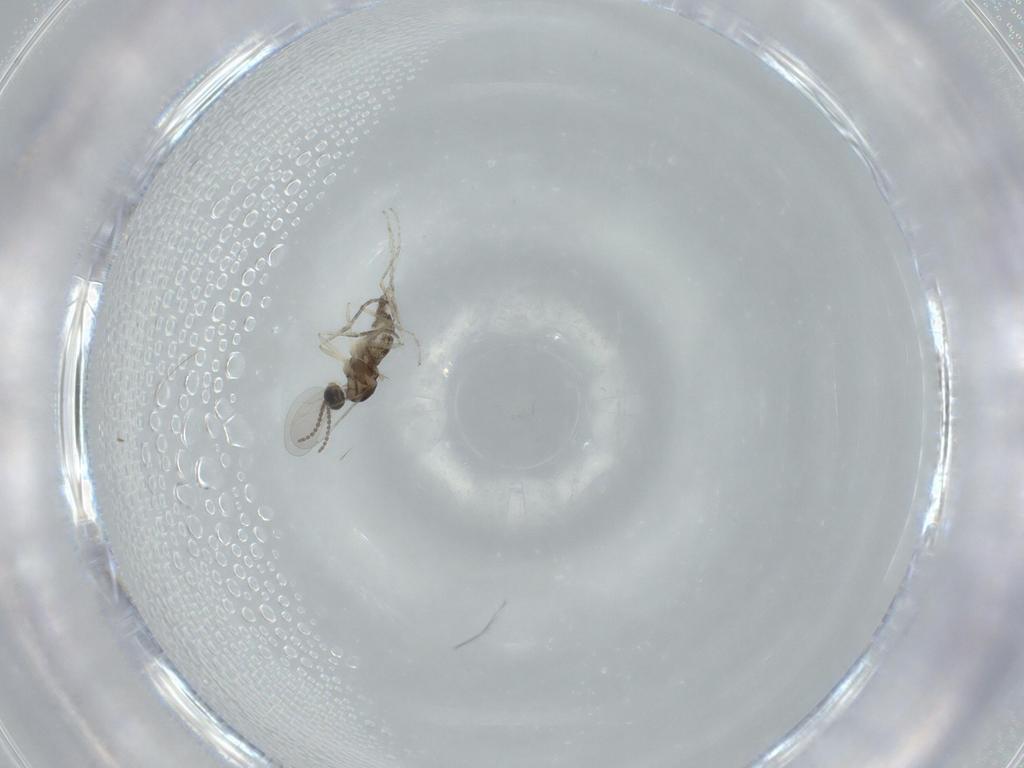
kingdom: Animalia
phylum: Arthropoda
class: Insecta
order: Diptera
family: Cecidomyiidae
